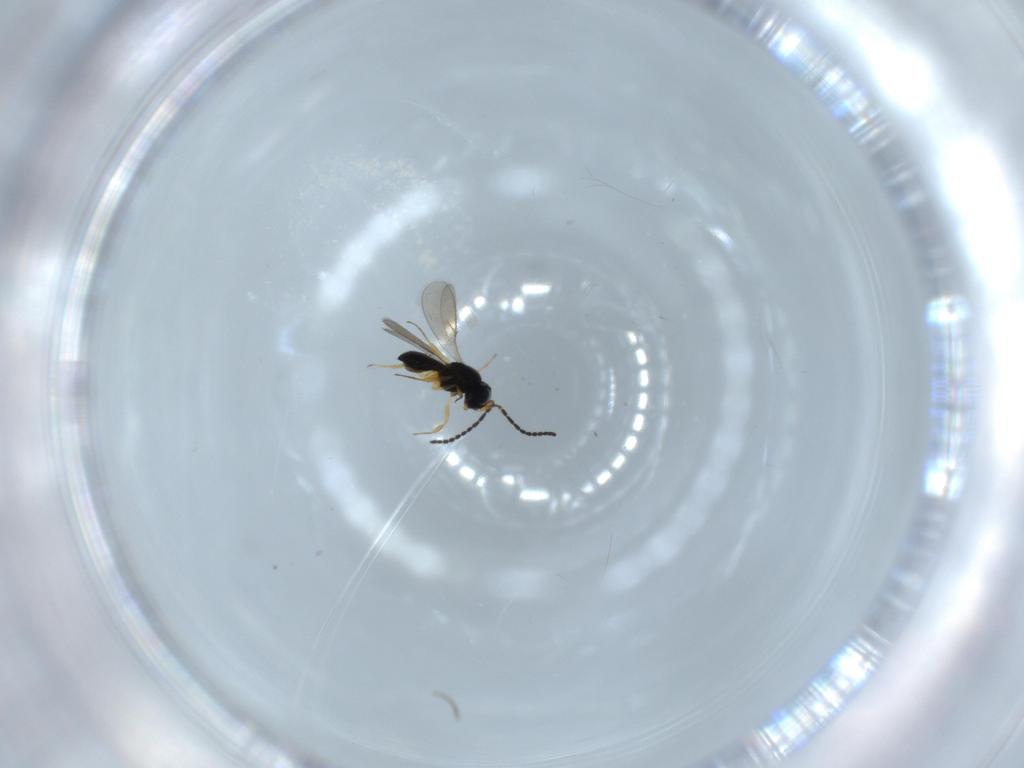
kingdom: Animalia
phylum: Arthropoda
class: Insecta
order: Hymenoptera
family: Scelionidae
